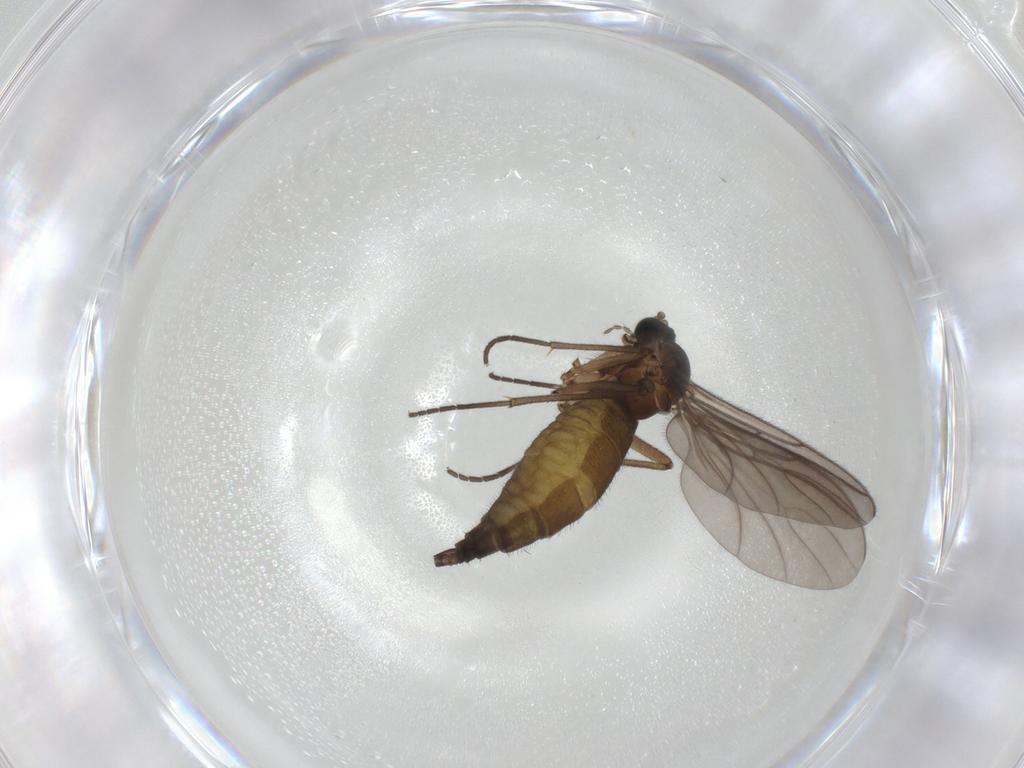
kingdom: Animalia
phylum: Arthropoda
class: Insecta
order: Diptera
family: Sciaridae
